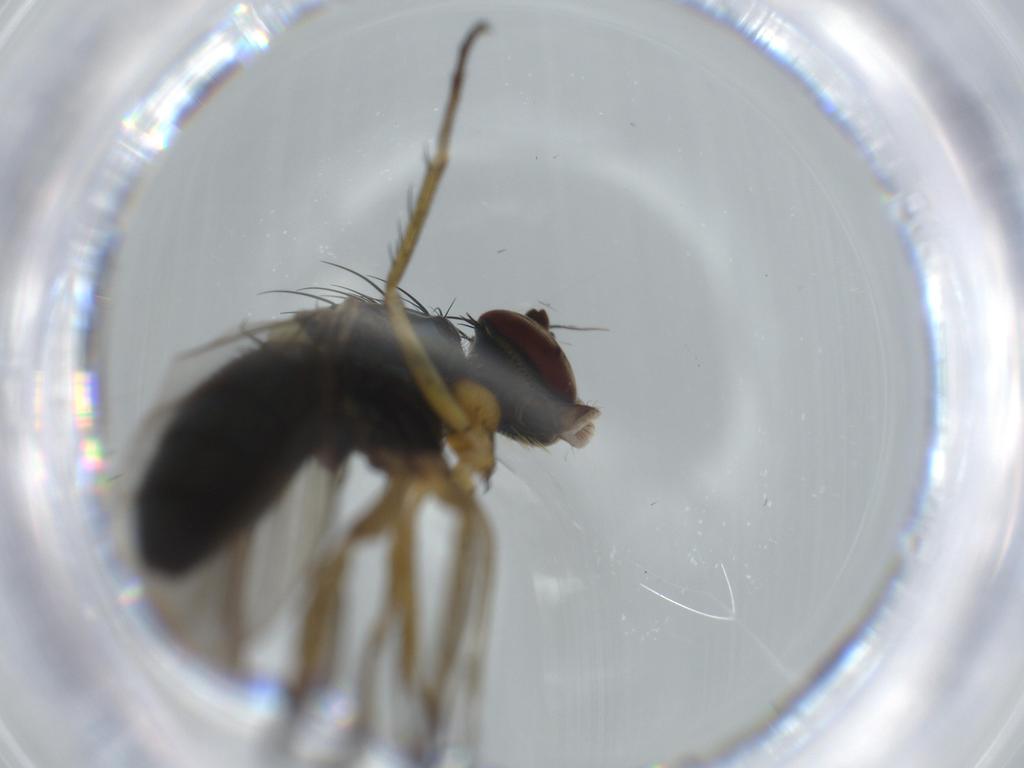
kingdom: Animalia
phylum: Arthropoda
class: Insecta
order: Diptera
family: Dolichopodidae
